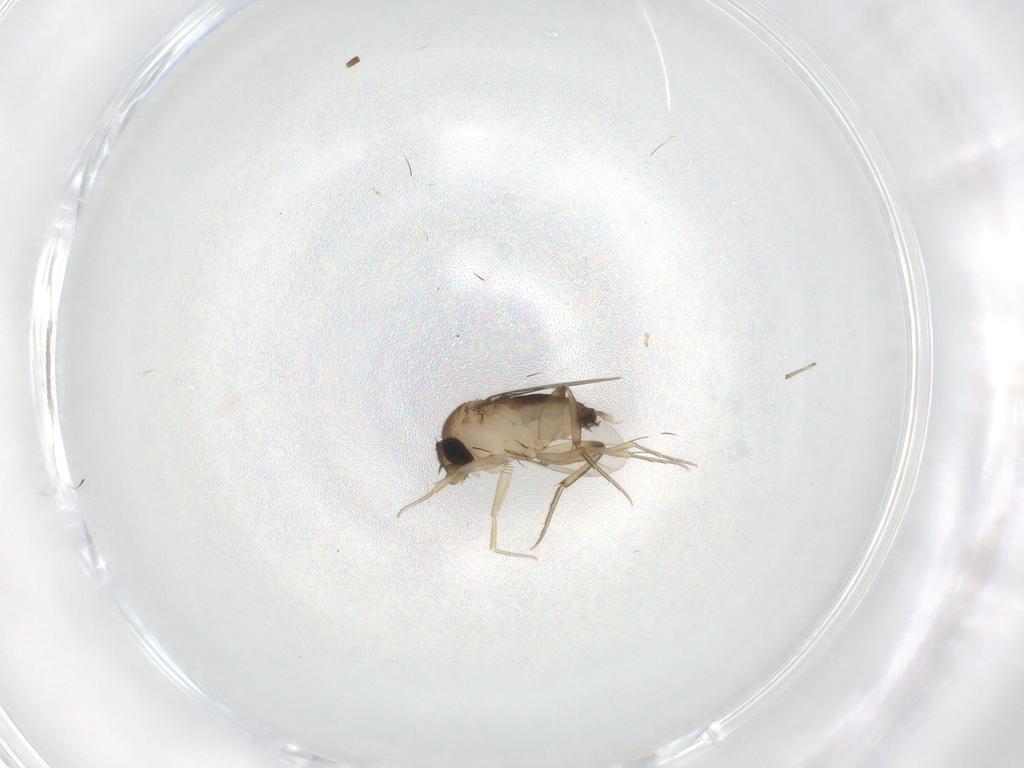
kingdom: Animalia
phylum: Arthropoda
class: Insecta
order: Diptera
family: Phoridae
